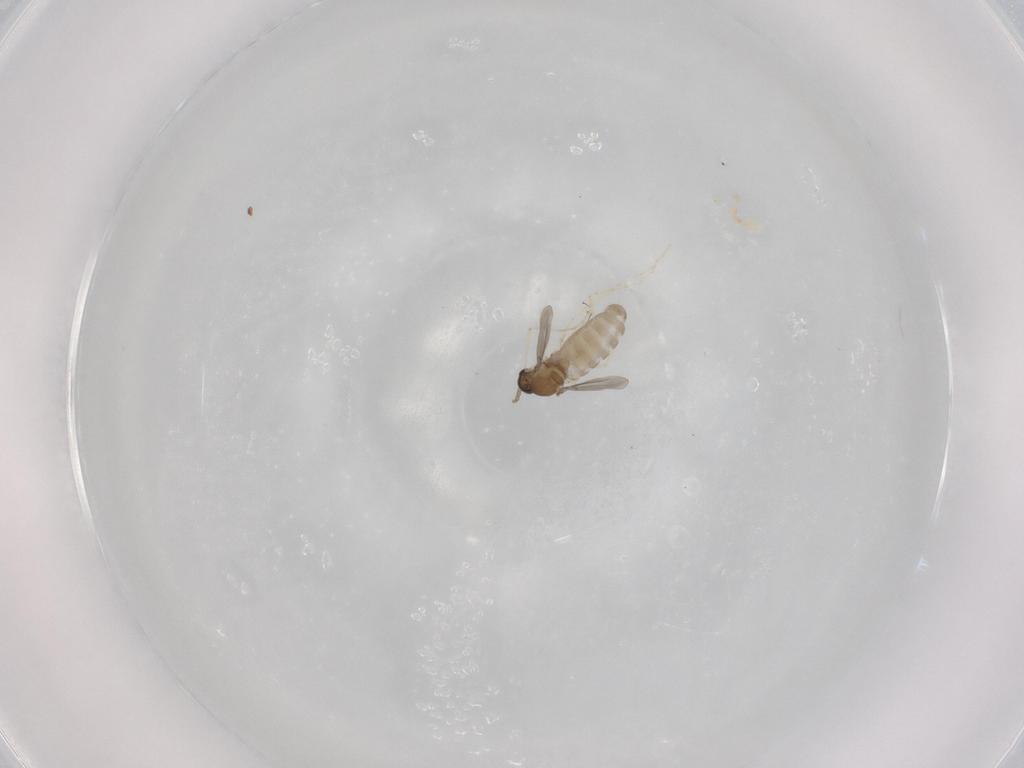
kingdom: Animalia
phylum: Arthropoda
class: Insecta
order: Diptera
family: Cecidomyiidae
